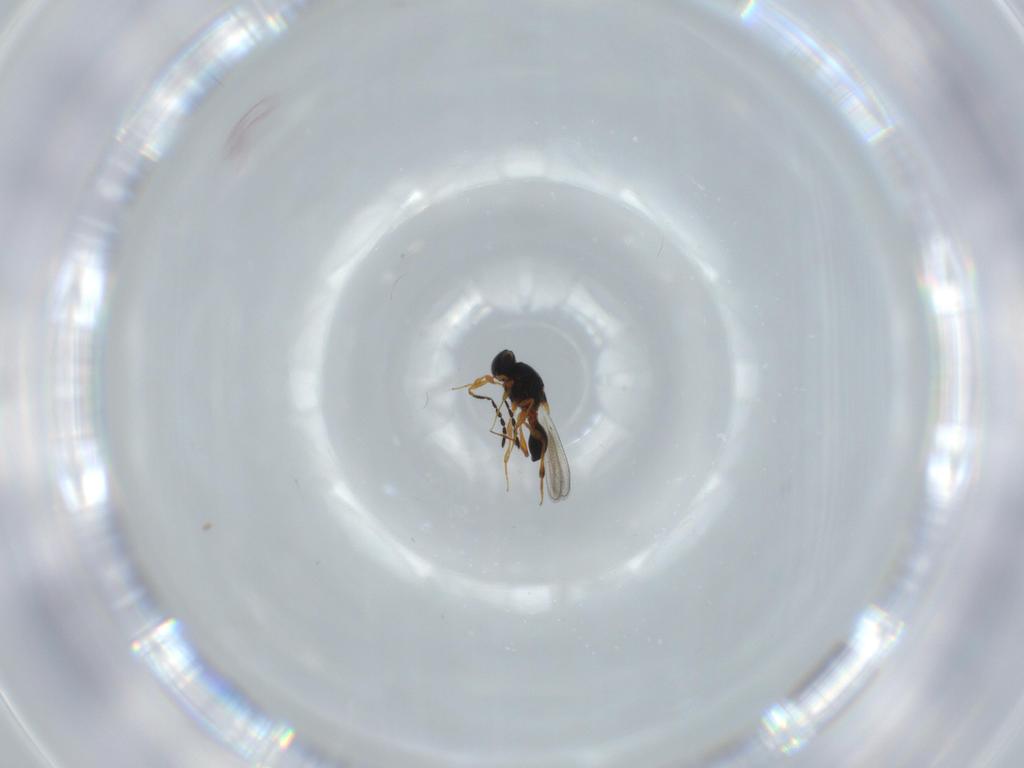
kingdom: Animalia
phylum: Arthropoda
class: Insecta
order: Hymenoptera
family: Platygastridae
